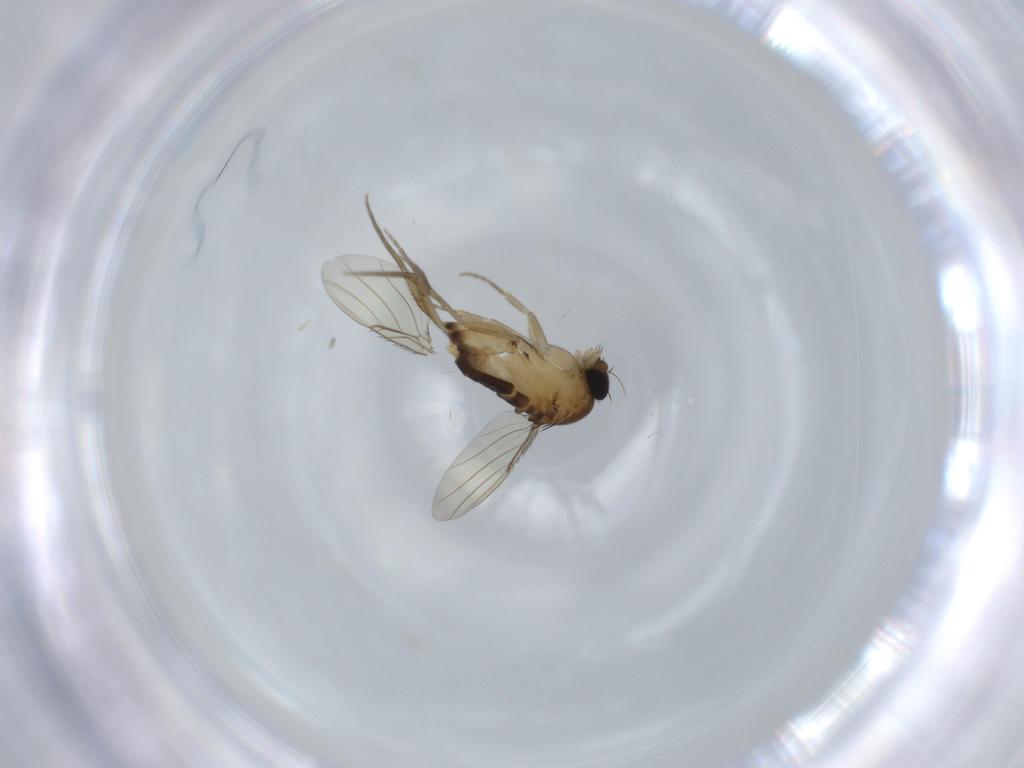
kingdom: Animalia
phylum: Arthropoda
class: Insecta
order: Diptera
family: Phoridae
